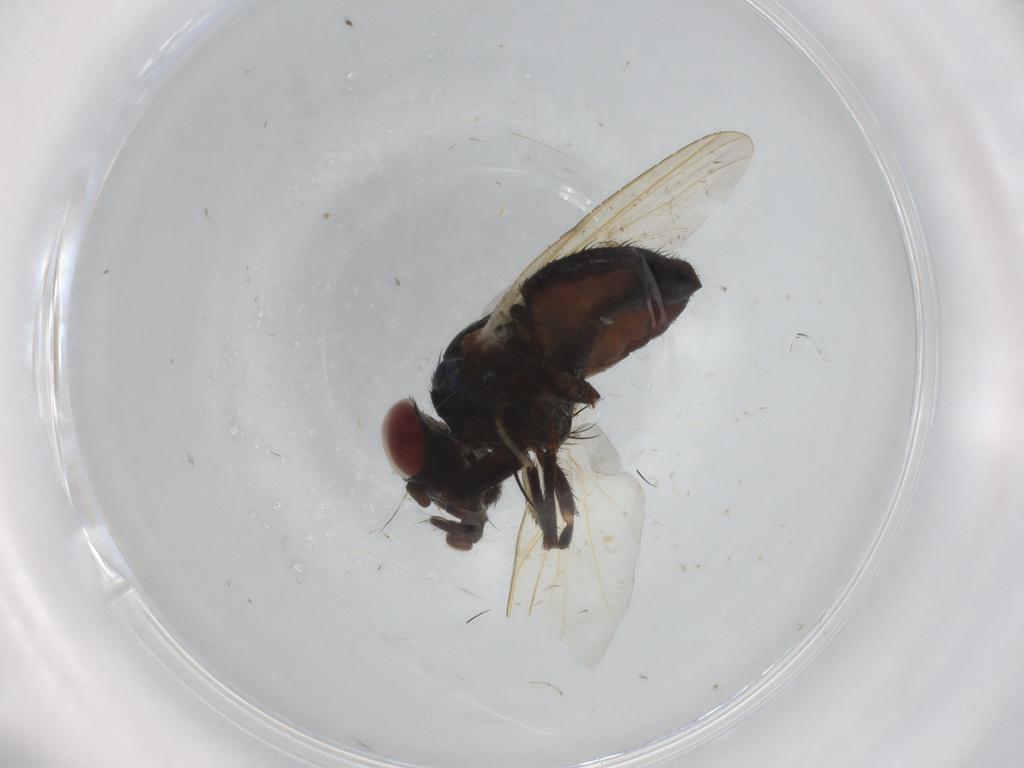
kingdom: Animalia
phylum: Arthropoda
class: Insecta
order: Diptera
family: Lonchaeidae
